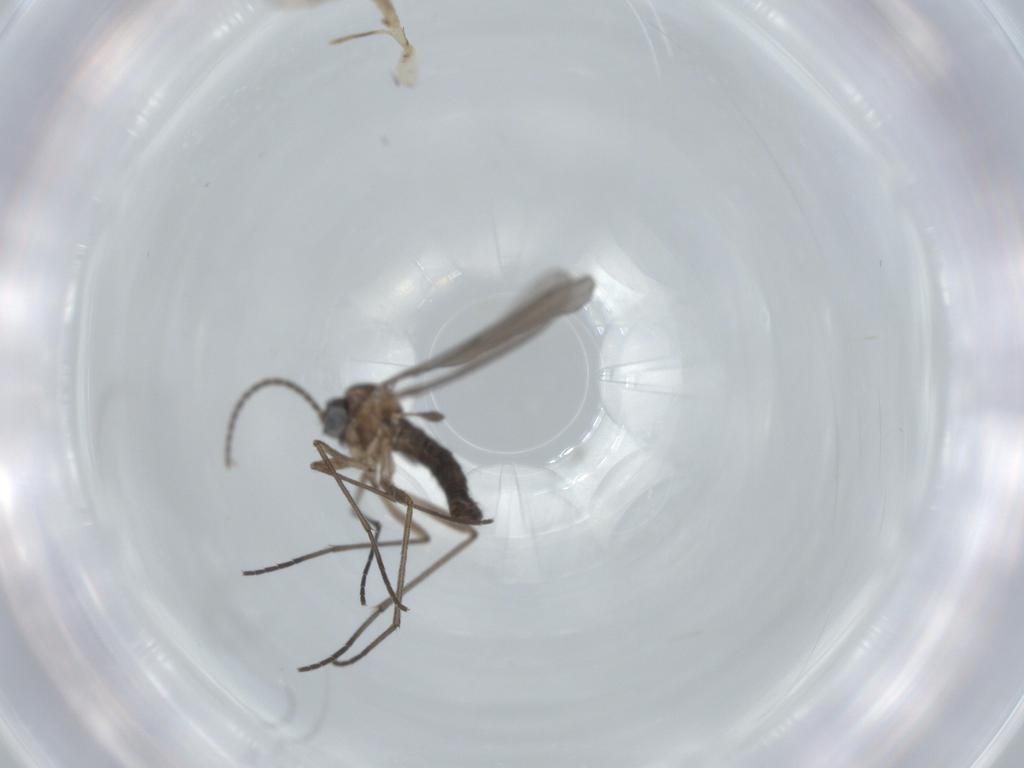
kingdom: Animalia
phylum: Arthropoda
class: Insecta
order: Diptera
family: Sciaridae
